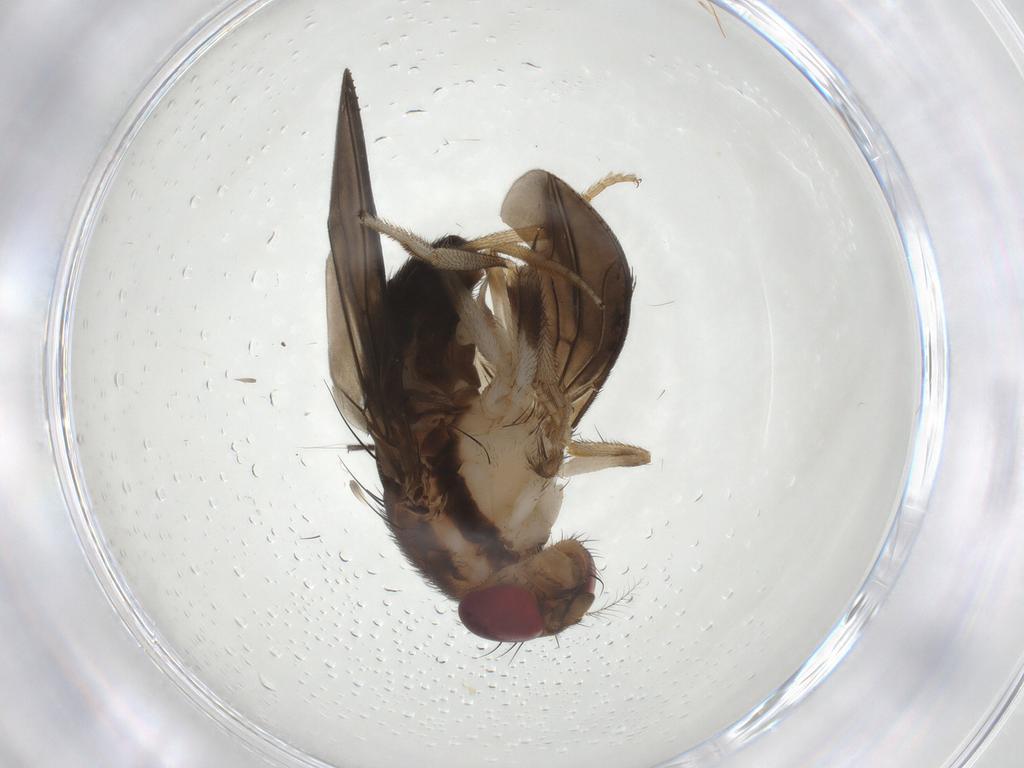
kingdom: Animalia
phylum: Arthropoda
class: Insecta
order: Diptera
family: Drosophilidae
